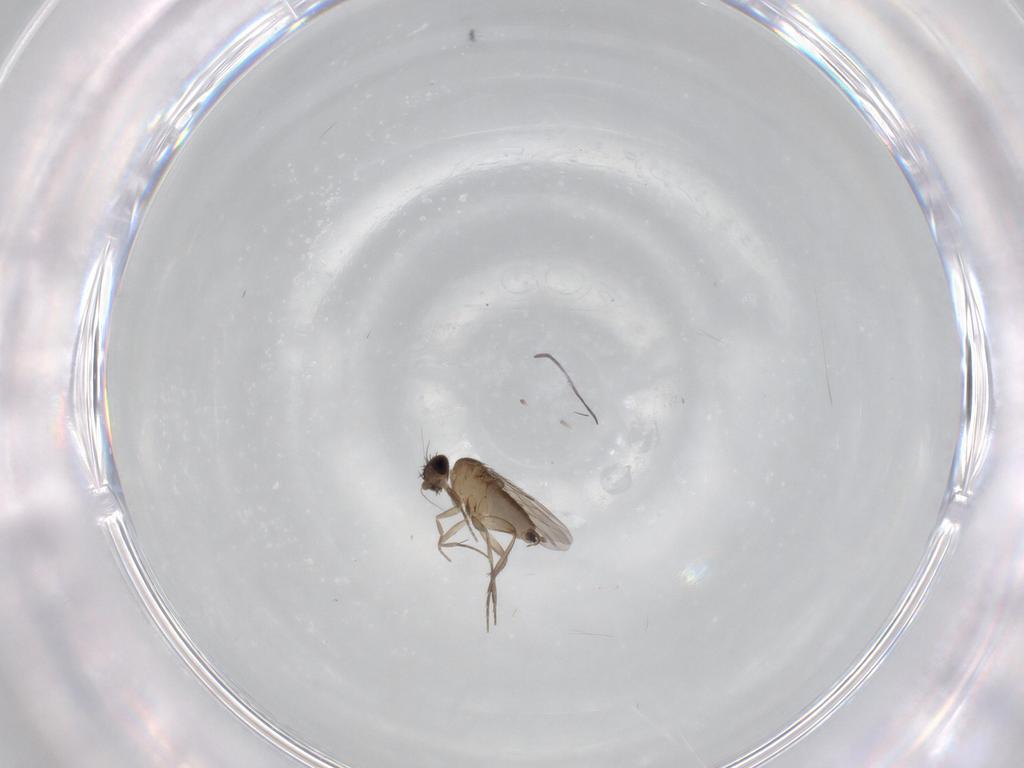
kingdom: Animalia
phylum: Arthropoda
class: Insecta
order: Diptera
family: Phoridae
